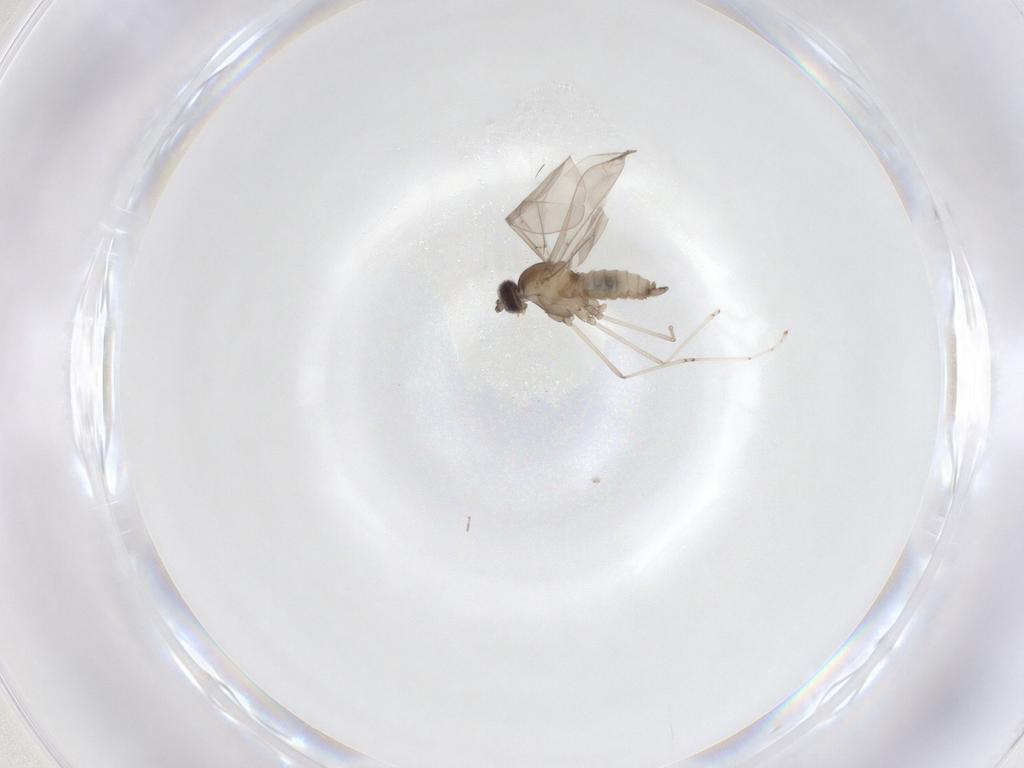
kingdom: Animalia
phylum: Arthropoda
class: Insecta
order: Diptera
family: Cecidomyiidae
